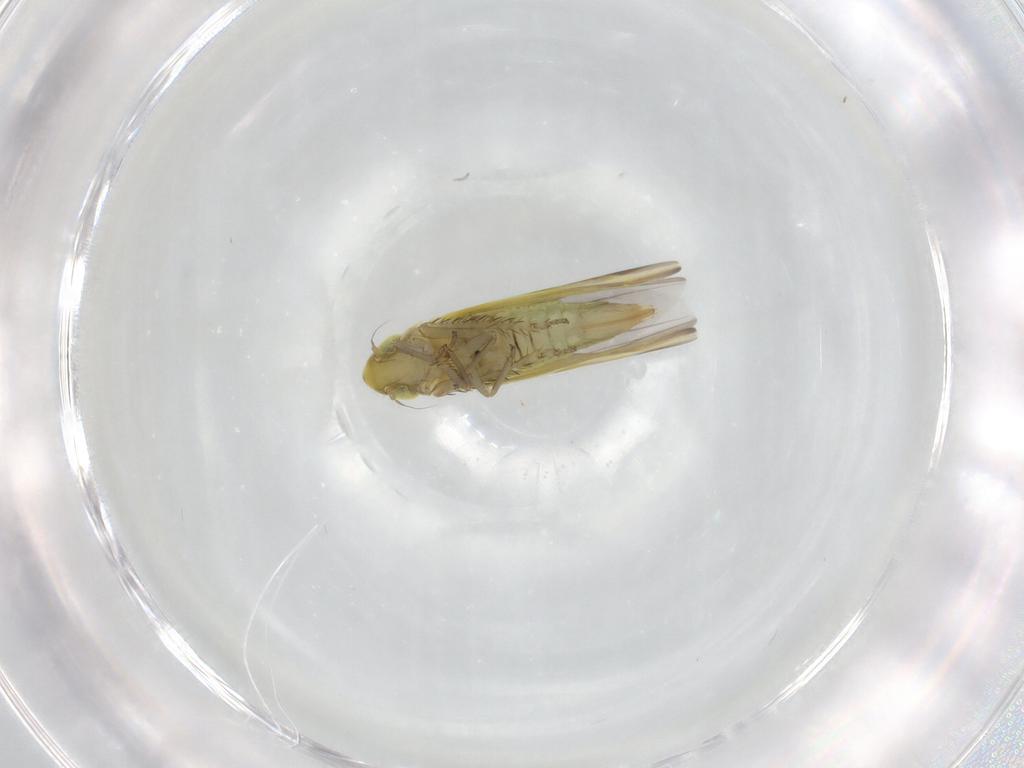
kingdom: Animalia
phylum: Arthropoda
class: Insecta
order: Hemiptera
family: Cicadellidae
